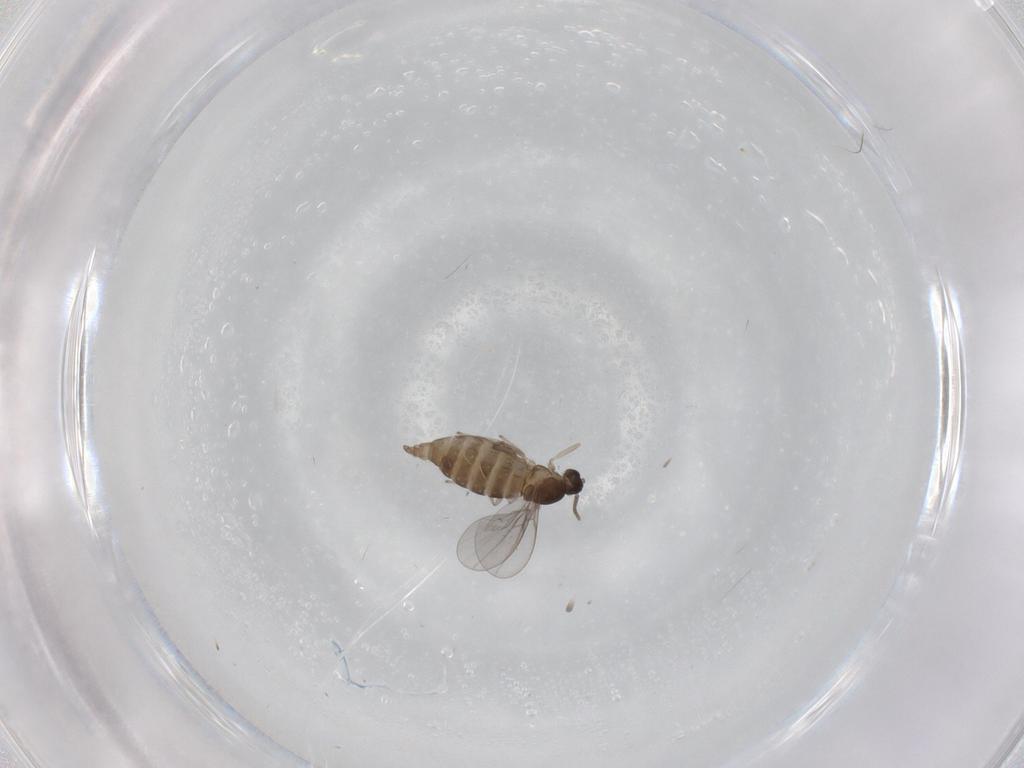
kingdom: Animalia
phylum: Arthropoda
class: Insecta
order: Diptera
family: Cecidomyiidae
